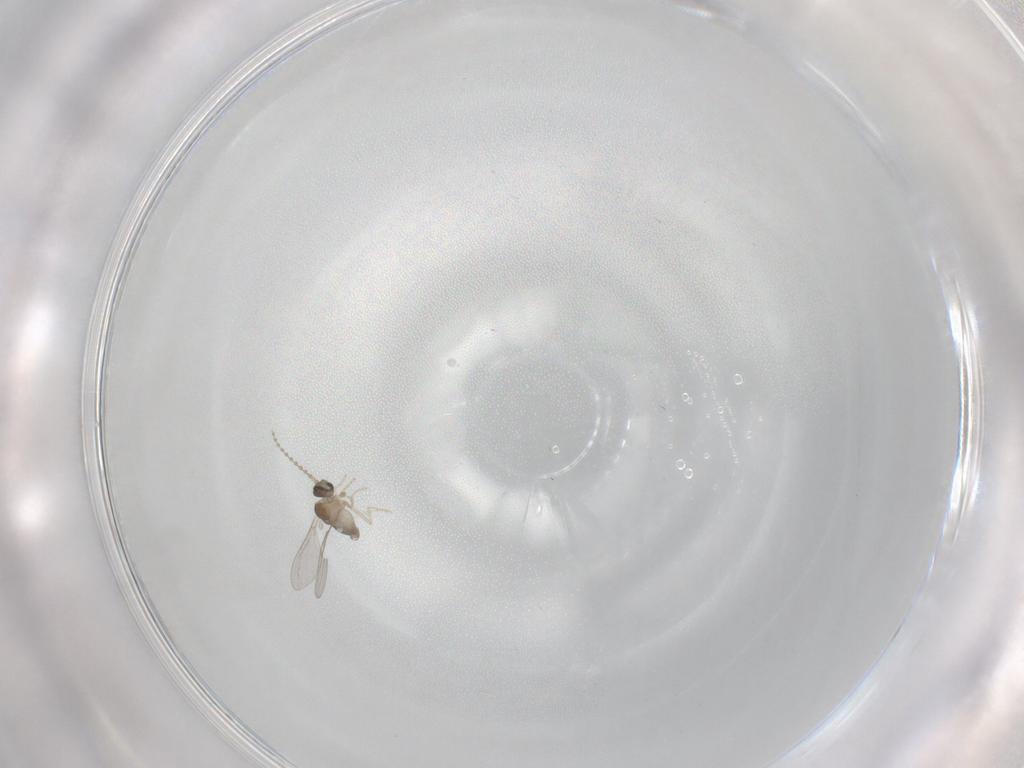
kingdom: Animalia
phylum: Arthropoda
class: Insecta
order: Diptera
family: Cecidomyiidae
